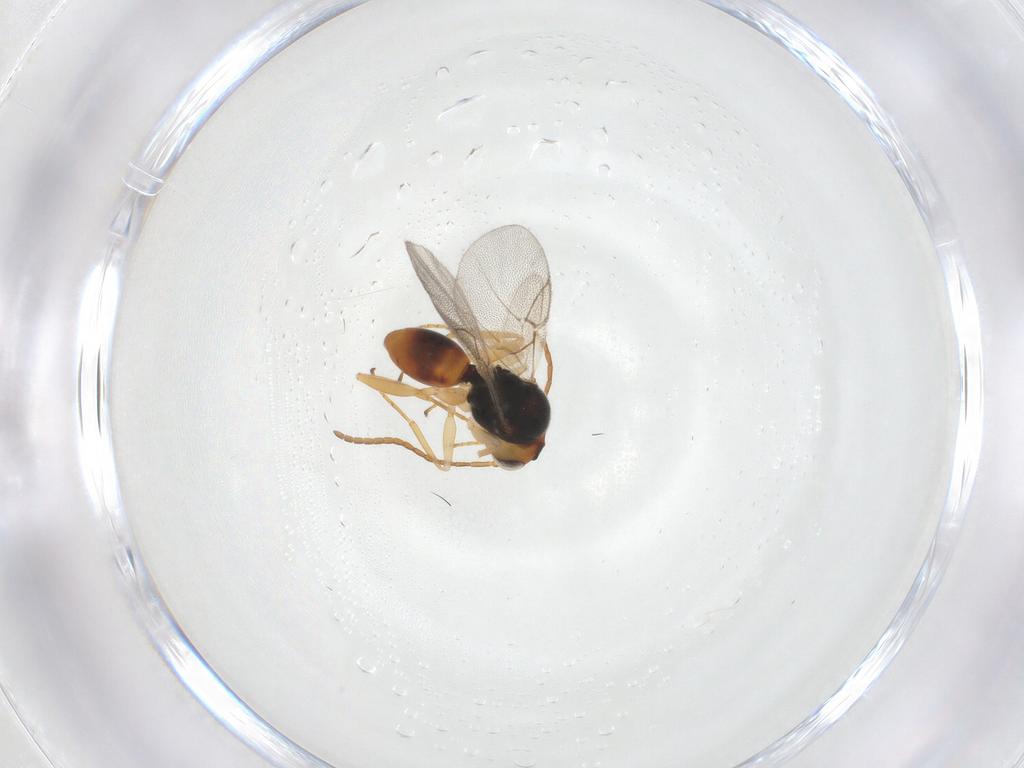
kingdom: Animalia
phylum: Arthropoda
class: Insecta
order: Hymenoptera
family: Cynipidae
